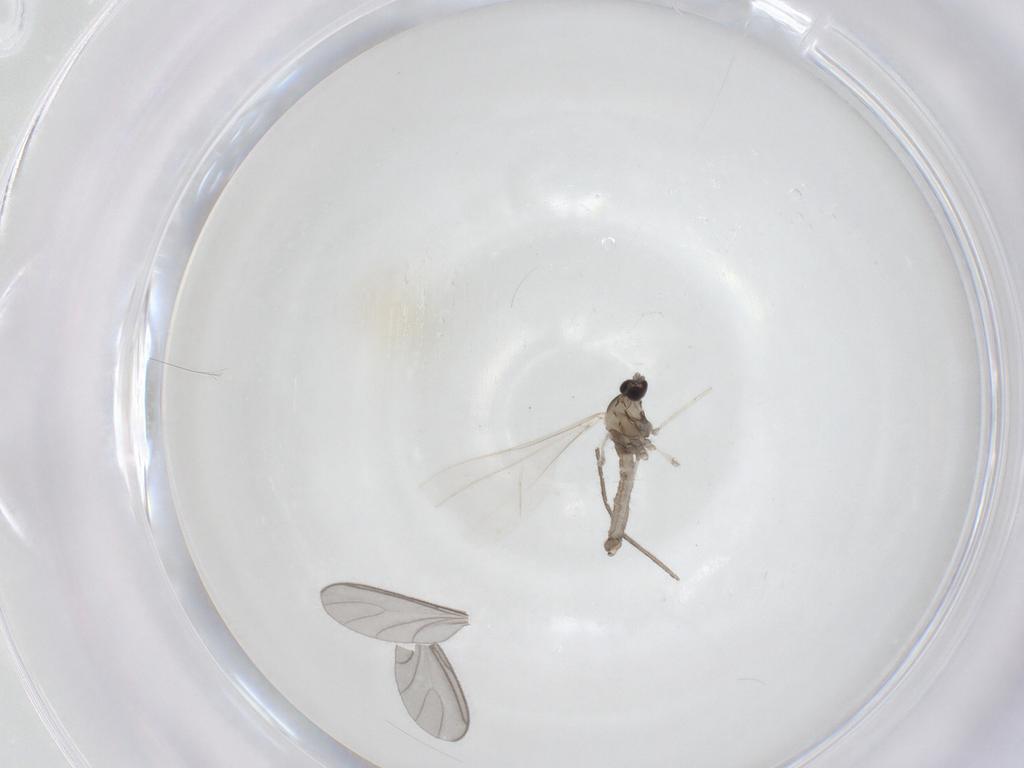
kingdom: Animalia
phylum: Arthropoda
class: Insecta
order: Diptera
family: Cecidomyiidae
